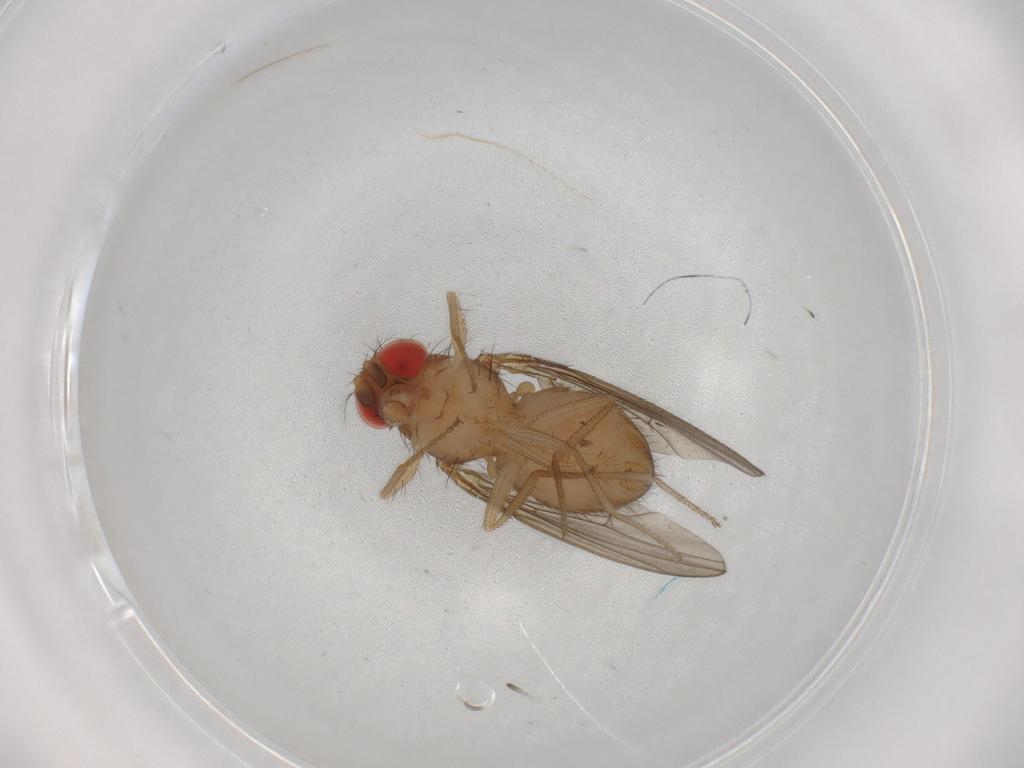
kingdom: Animalia
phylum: Arthropoda
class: Insecta
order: Diptera
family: Drosophilidae
